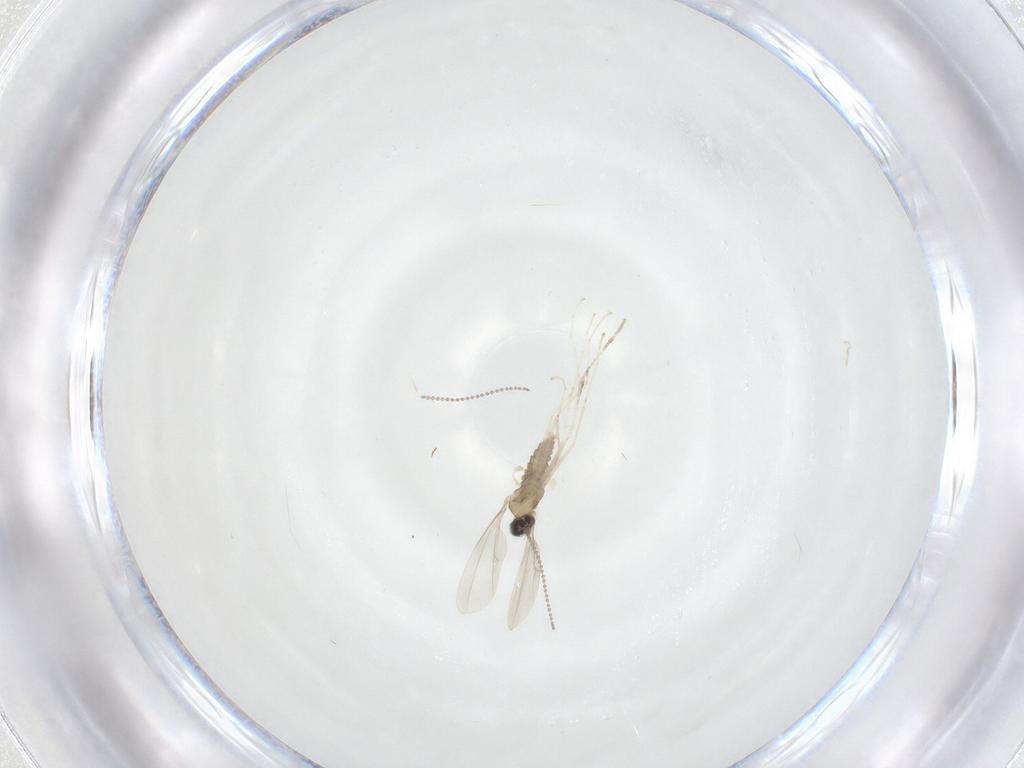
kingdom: Animalia
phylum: Arthropoda
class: Insecta
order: Diptera
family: Cecidomyiidae
